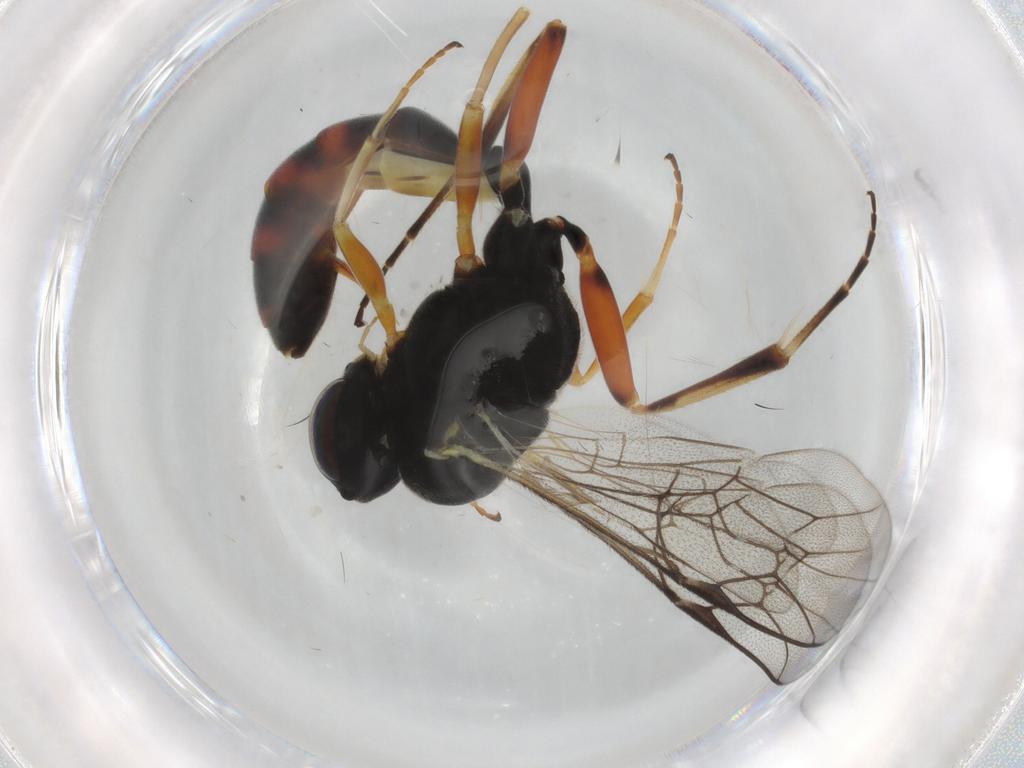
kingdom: Animalia
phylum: Arthropoda
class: Insecta
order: Hymenoptera
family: Ichneumonidae
